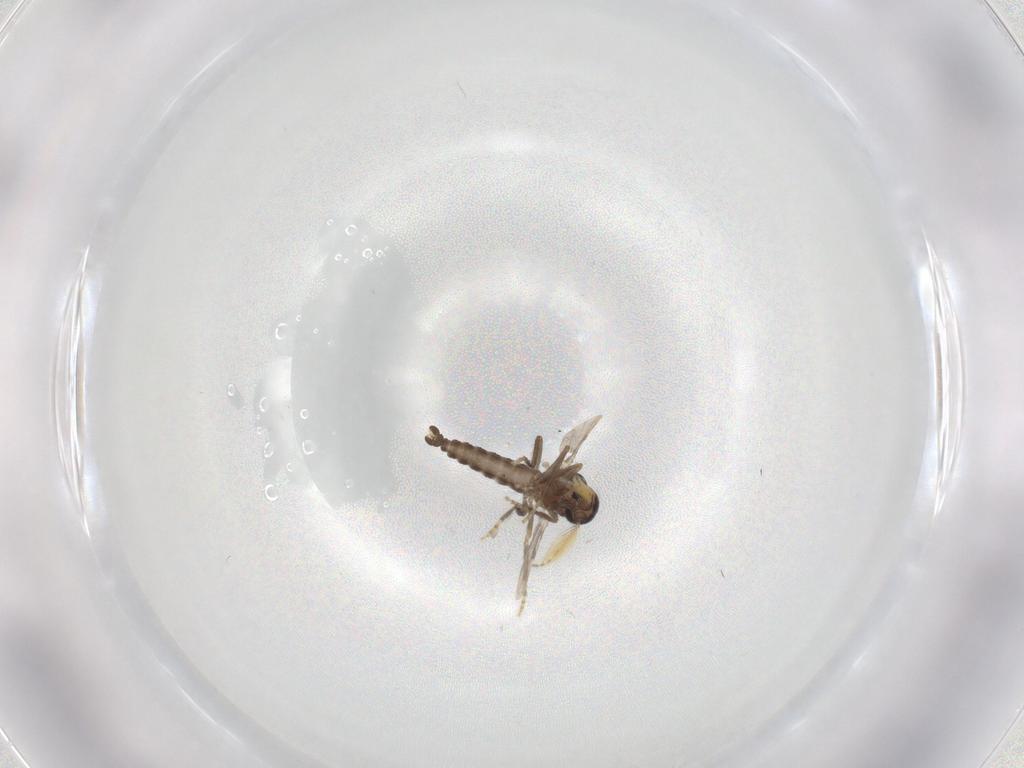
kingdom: Animalia
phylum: Arthropoda
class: Insecta
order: Diptera
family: Ceratopogonidae
